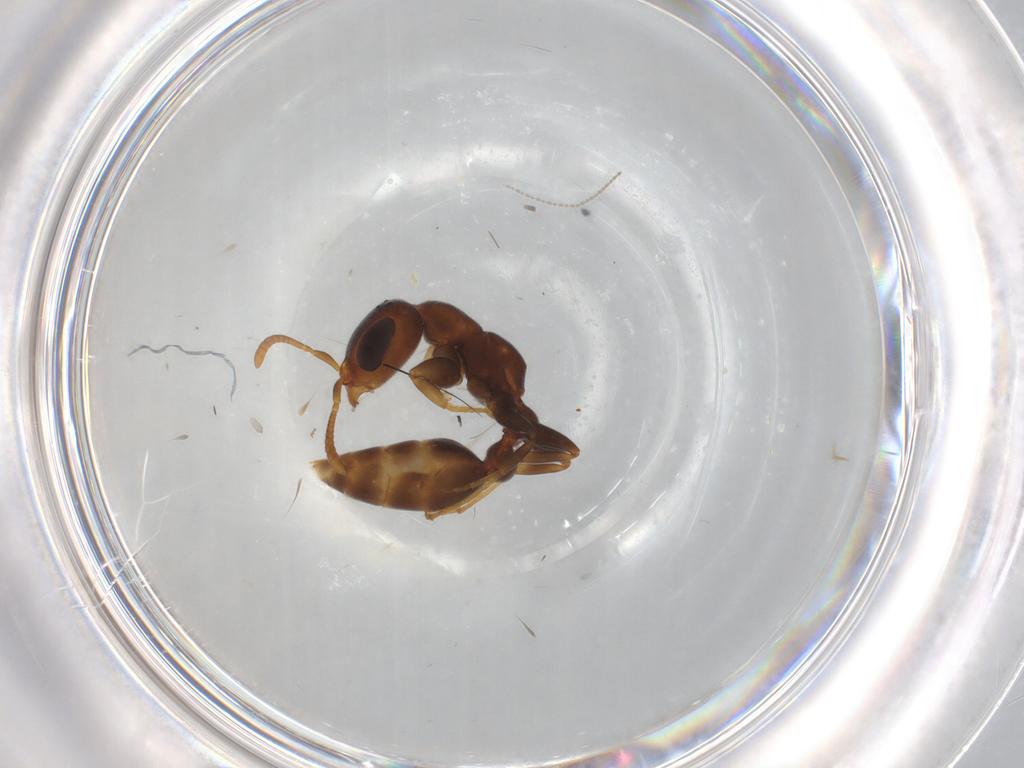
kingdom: Animalia
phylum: Arthropoda
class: Insecta
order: Hymenoptera
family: Formicidae
